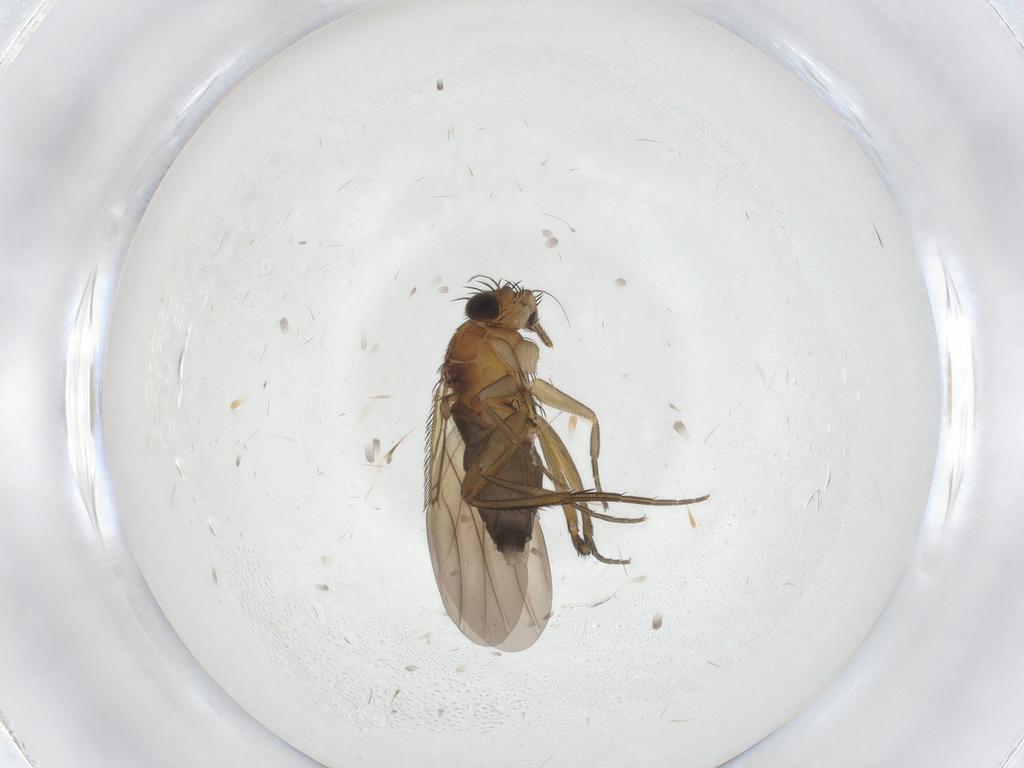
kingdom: Animalia
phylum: Arthropoda
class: Insecta
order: Diptera
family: Phoridae
